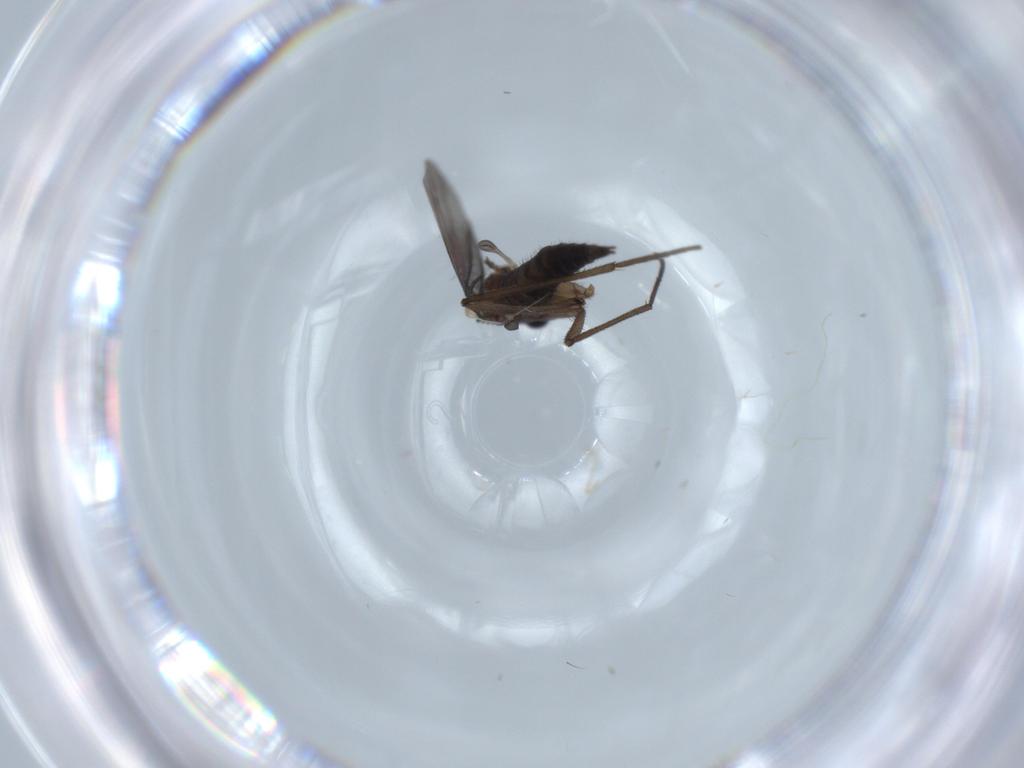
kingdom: Animalia
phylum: Arthropoda
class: Insecta
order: Diptera
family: Sciaridae
